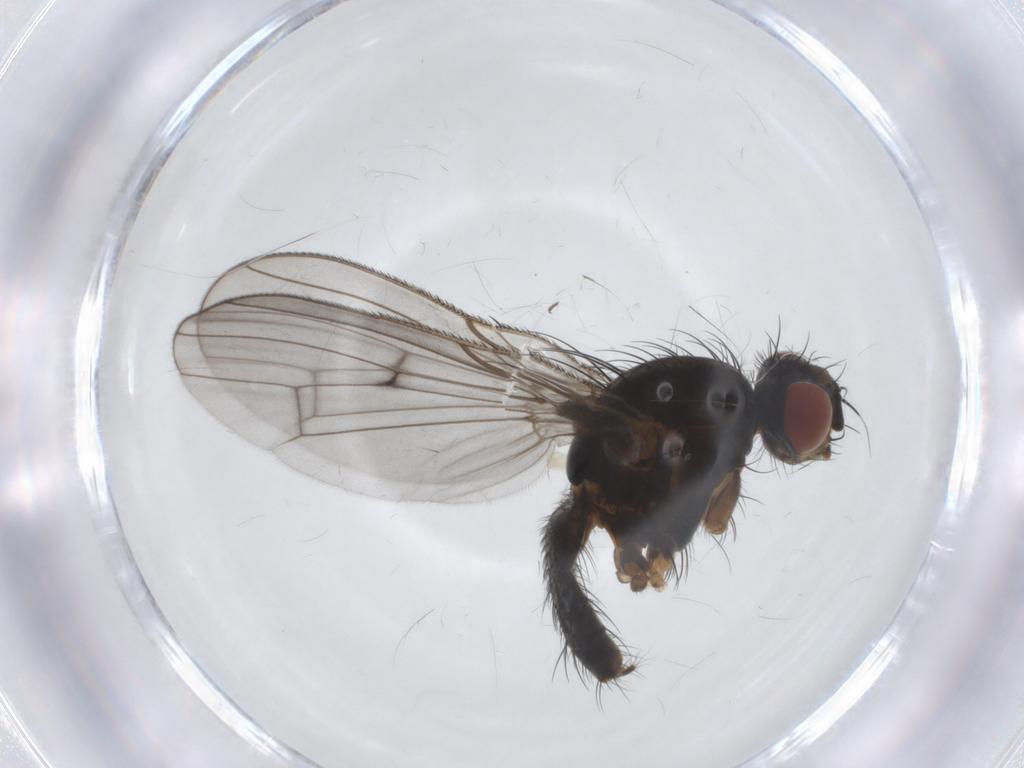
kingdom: Animalia
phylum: Arthropoda
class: Insecta
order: Diptera
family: Anthomyiidae
